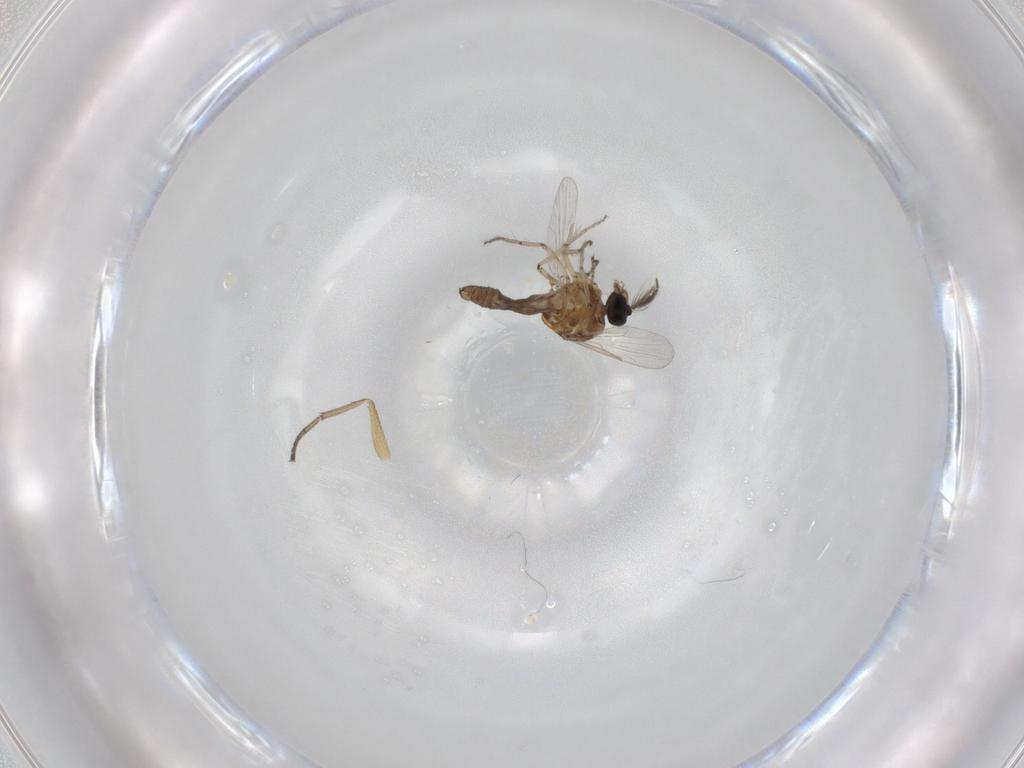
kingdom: Animalia
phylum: Arthropoda
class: Insecta
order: Diptera
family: Ceratopogonidae
